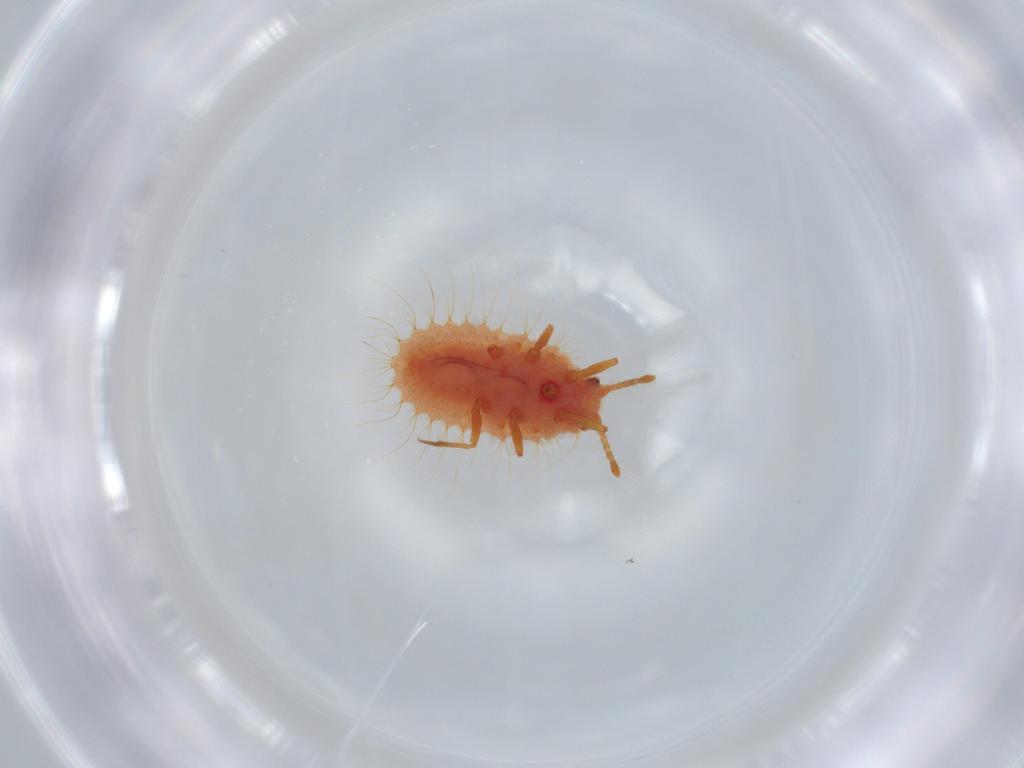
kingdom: Animalia
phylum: Arthropoda
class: Insecta
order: Hemiptera
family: Coccoidea_incertae_sedis
